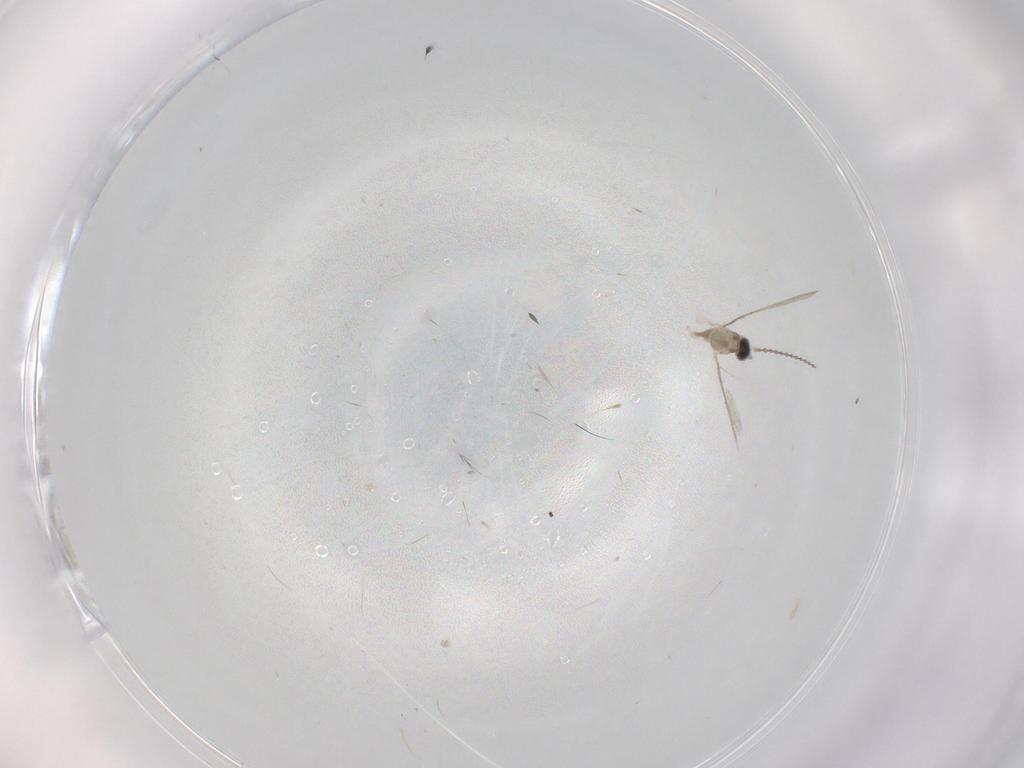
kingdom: Animalia
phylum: Arthropoda
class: Insecta
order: Diptera
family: Cecidomyiidae
